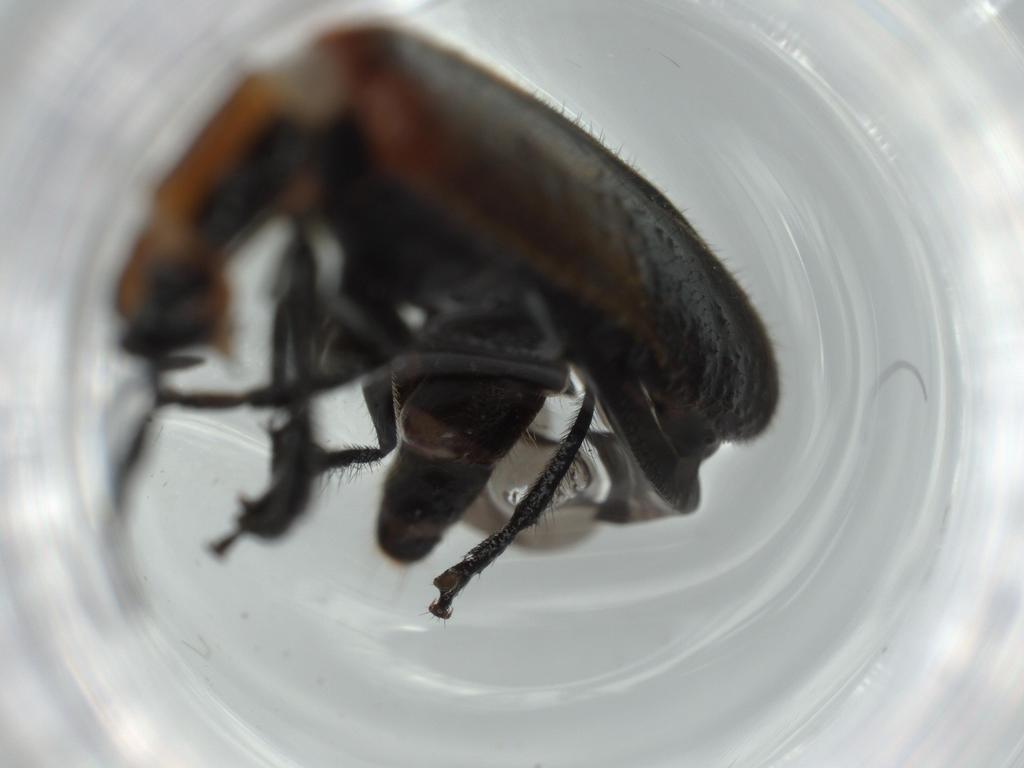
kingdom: Animalia
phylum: Arthropoda
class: Insecta
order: Coleoptera
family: Cleridae
